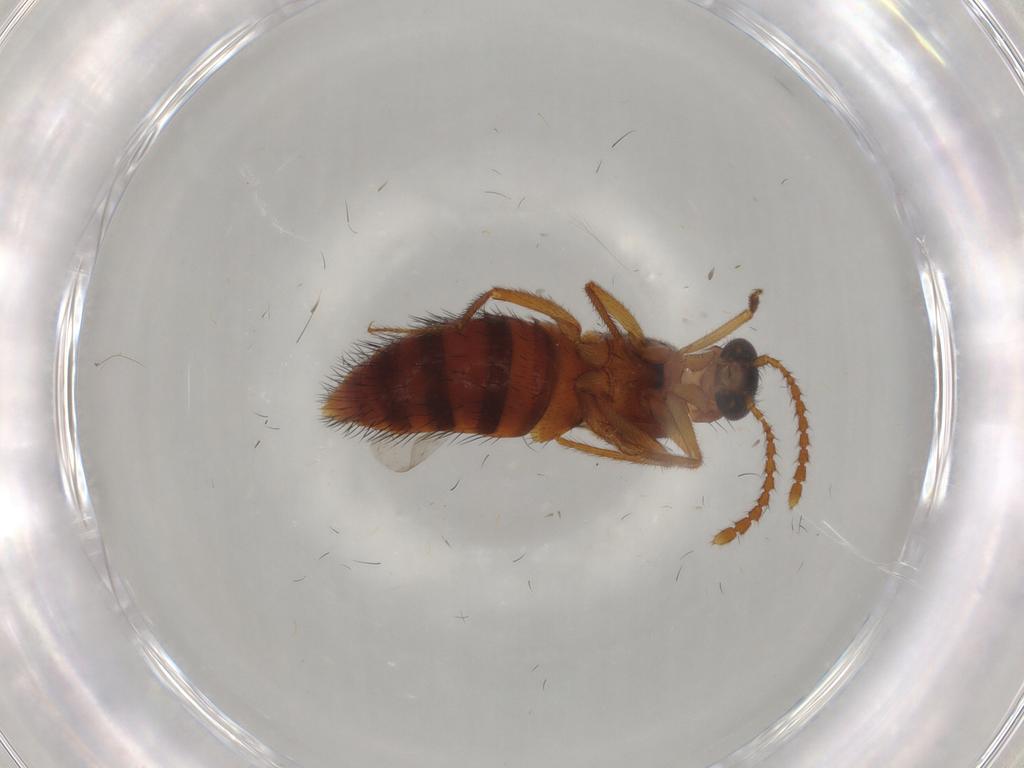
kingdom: Animalia
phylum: Arthropoda
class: Insecta
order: Coleoptera
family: Staphylinidae
